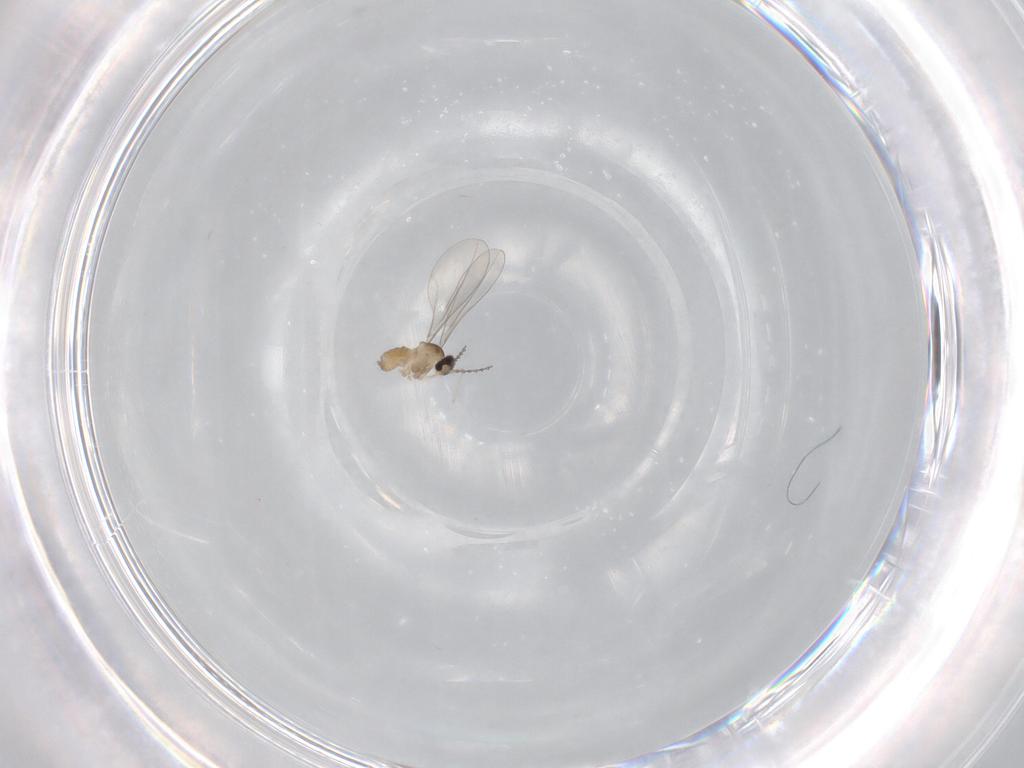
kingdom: Animalia
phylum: Arthropoda
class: Insecta
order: Diptera
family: Cecidomyiidae
